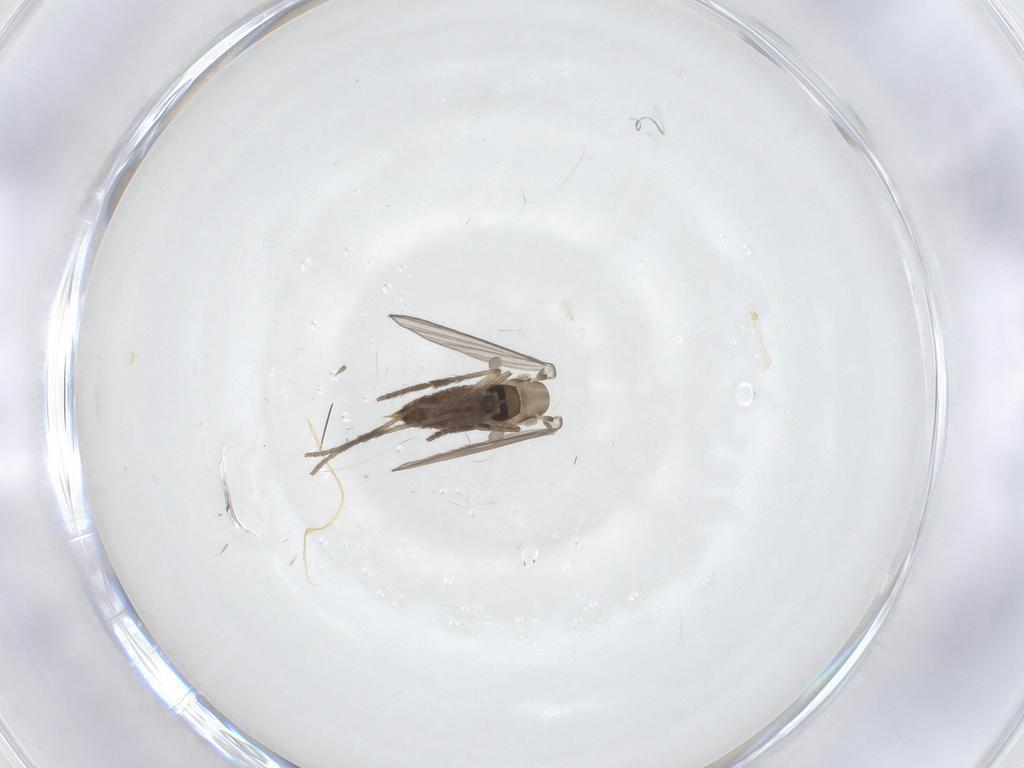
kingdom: Animalia
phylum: Arthropoda
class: Insecta
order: Diptera
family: Psychodidae
